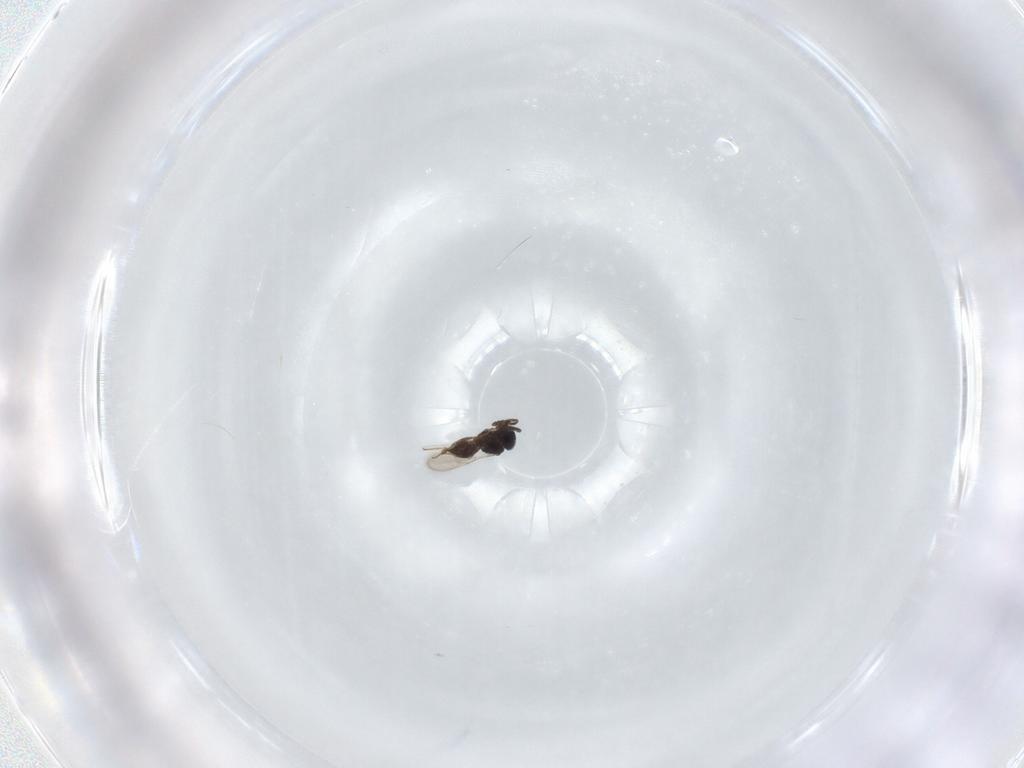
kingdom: Animalia
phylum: Arthropoda
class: Insecta
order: Hymenoptera
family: Scelionidae
